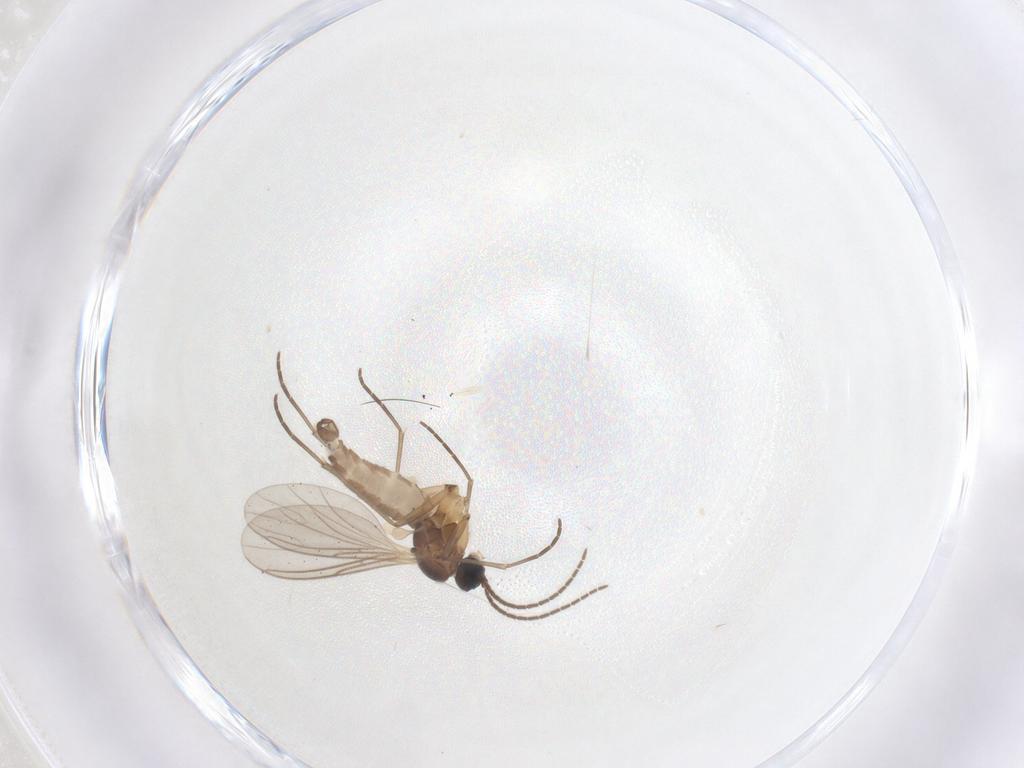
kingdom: Animalia
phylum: Arthropoda
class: Insecta
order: Diptera
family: Sciaridae
